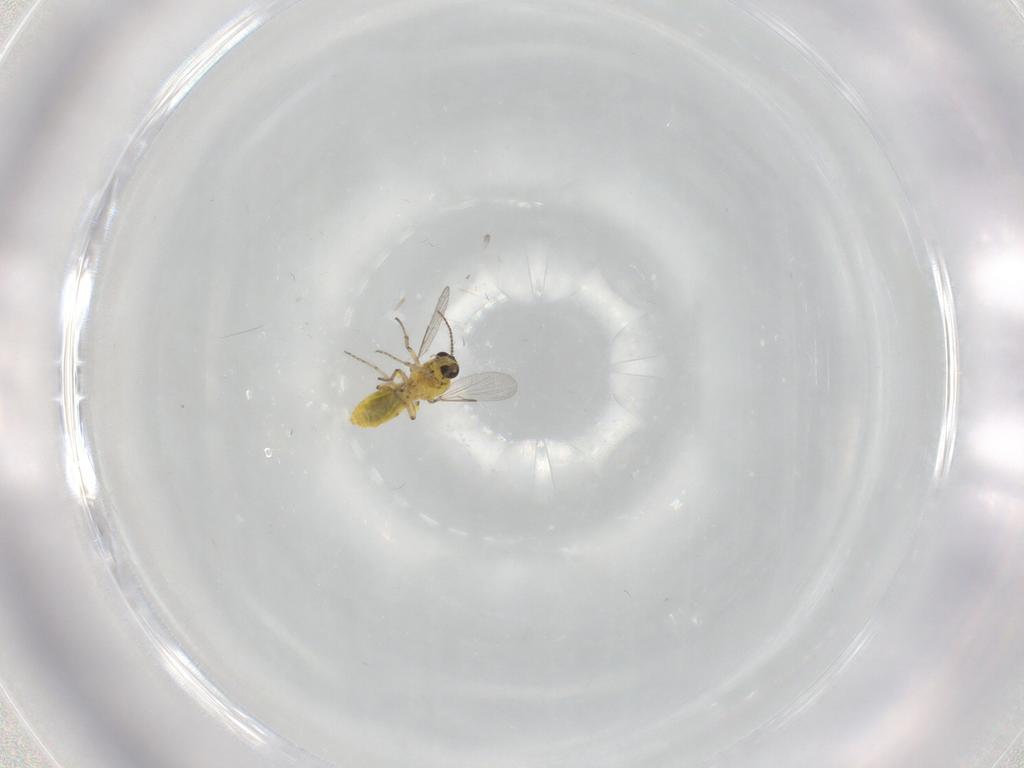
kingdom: Animalia
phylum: Arthropoda
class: Insecta
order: Diptera
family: Ceratopogonidae
